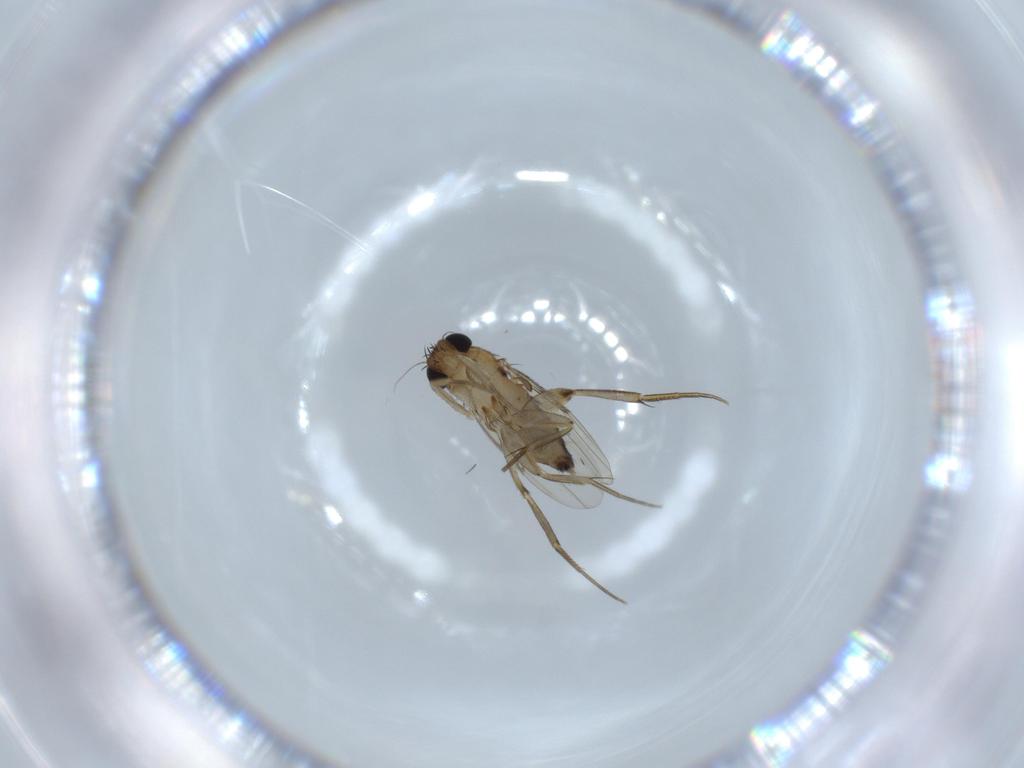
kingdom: Animalia
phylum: Arthropoda
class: Insecta
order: Diptera
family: Phoridae
